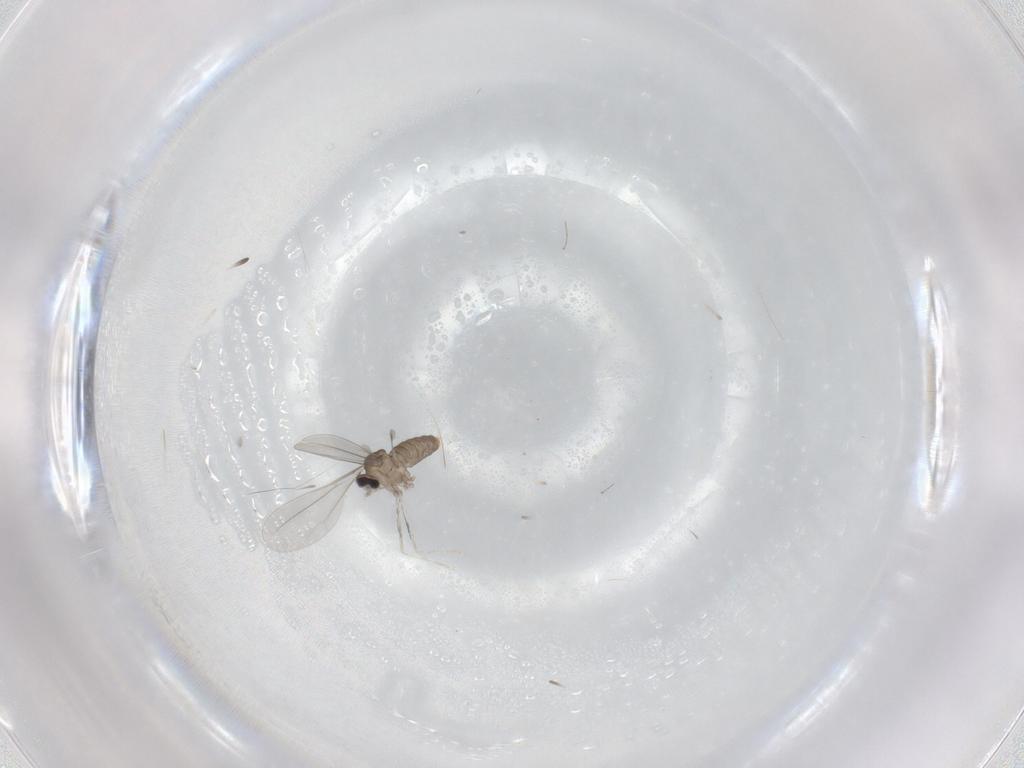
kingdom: Animalia
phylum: Arthropoda
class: Insecta
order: Diptera
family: Cecidomyiidae
